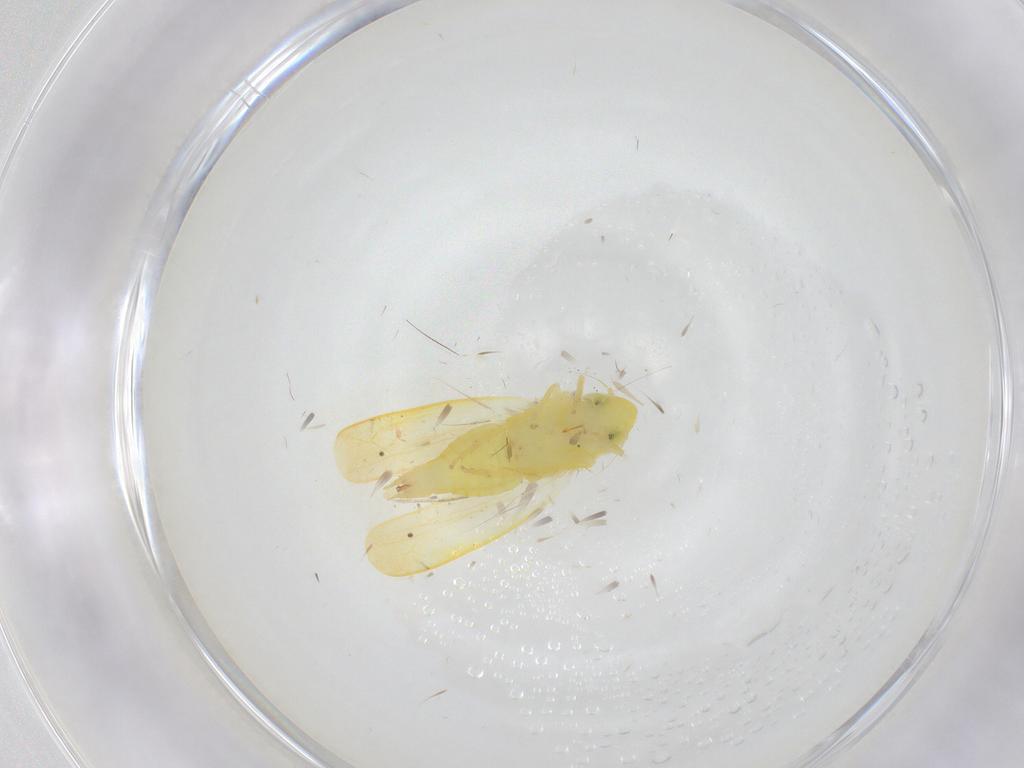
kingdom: Animalia
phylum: Arthropoda
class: Insecta
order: Hemiptera
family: Cicadellidae
